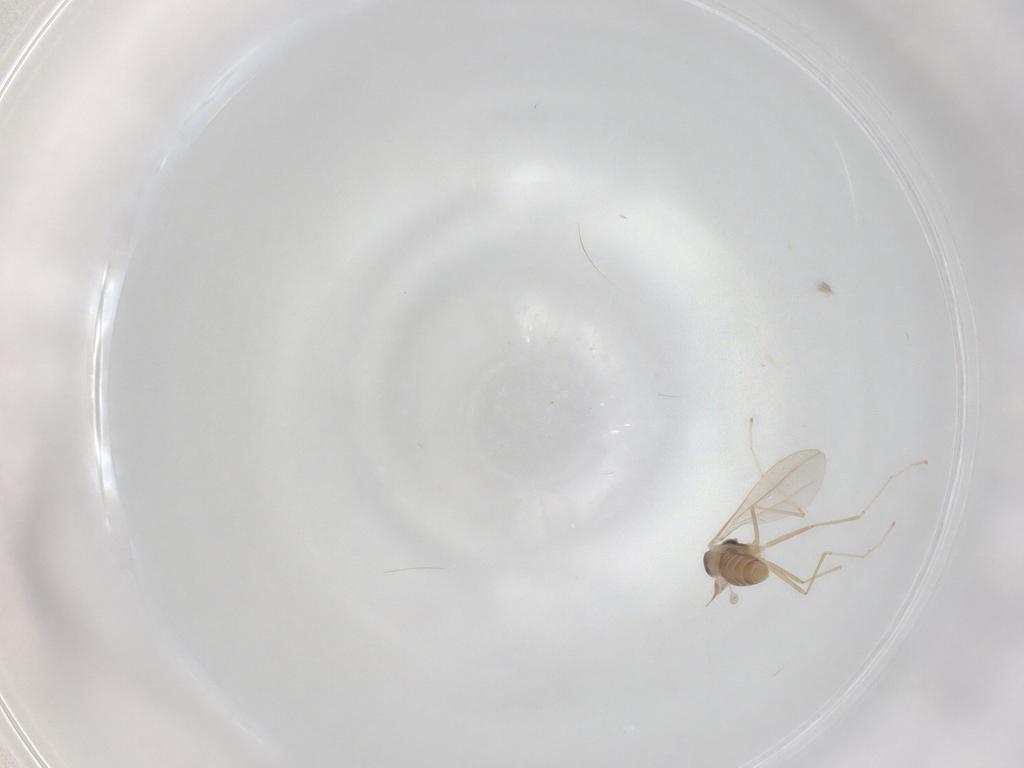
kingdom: Animalia
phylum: Arthropoda
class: Insecta
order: Diptera
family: Cecidomyiidae
